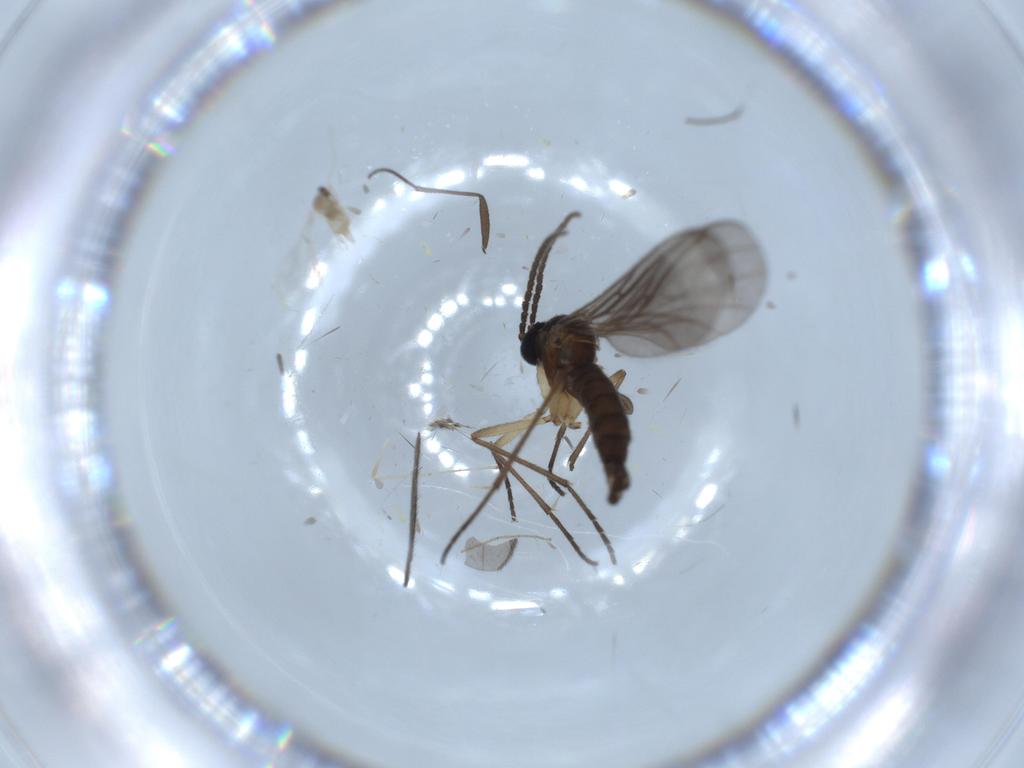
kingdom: Animalia
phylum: Arthropoda
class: Insecta
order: Diptera
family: Cecidomyiidae
